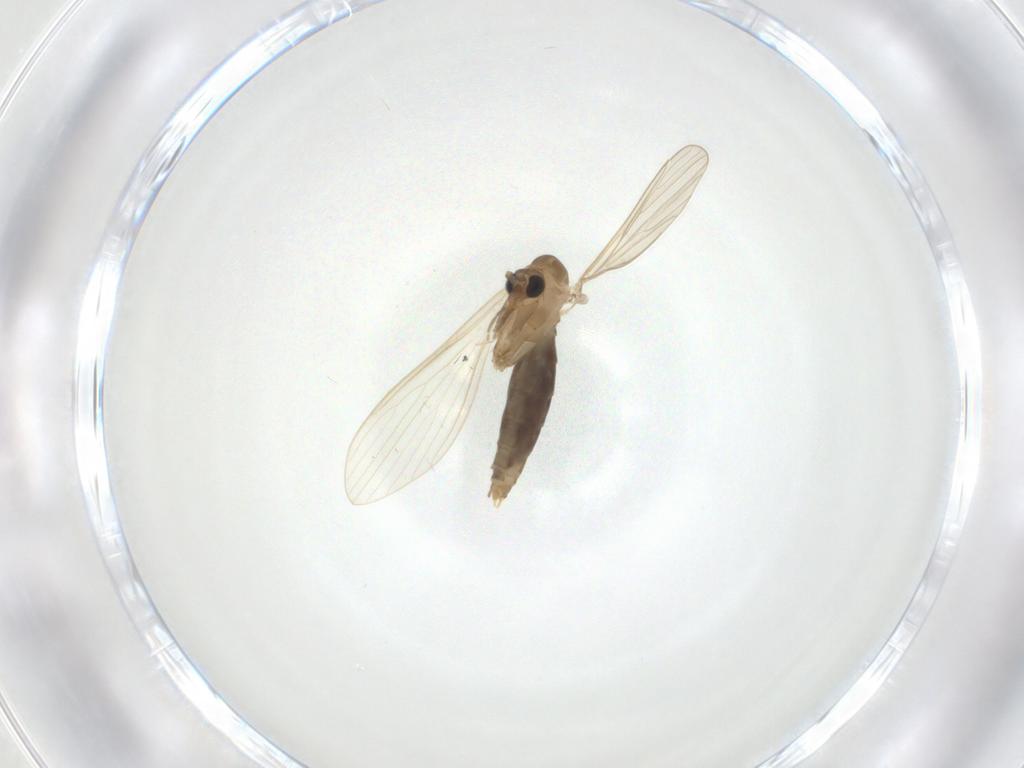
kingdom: Animalia
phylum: Arthropoda
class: Insecta
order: Diptera
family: Psychodidae
